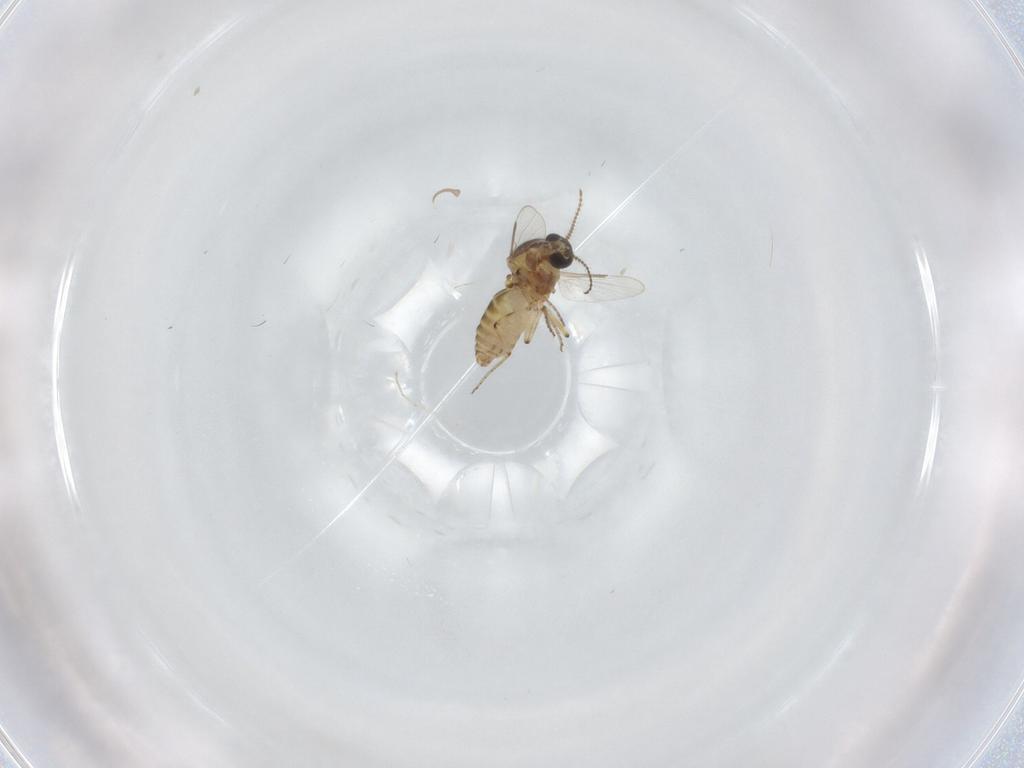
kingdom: Animalia
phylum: Arthropoda
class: Insecta
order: Diptera
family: Ceratopogonidae
